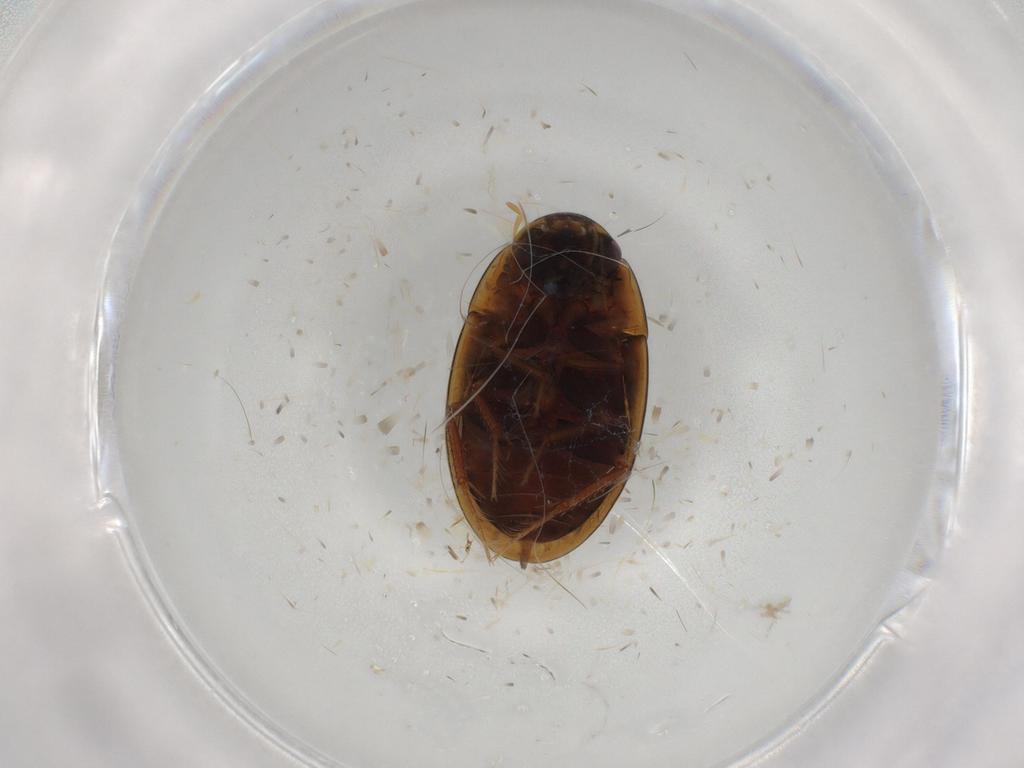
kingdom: Animalia
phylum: Arthropoda
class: Insecta
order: Coleoptera
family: Hydrophilidae
